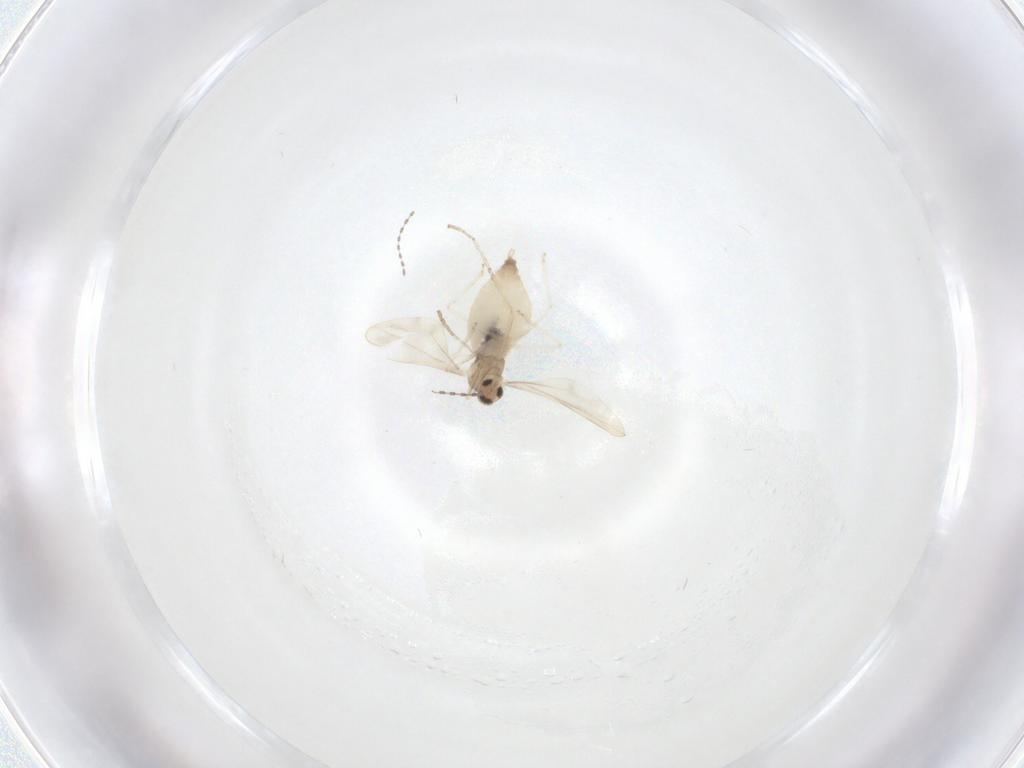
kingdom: Animalia
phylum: Arthropoda
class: Insecta
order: Diptera
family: Cecidomyiidae
